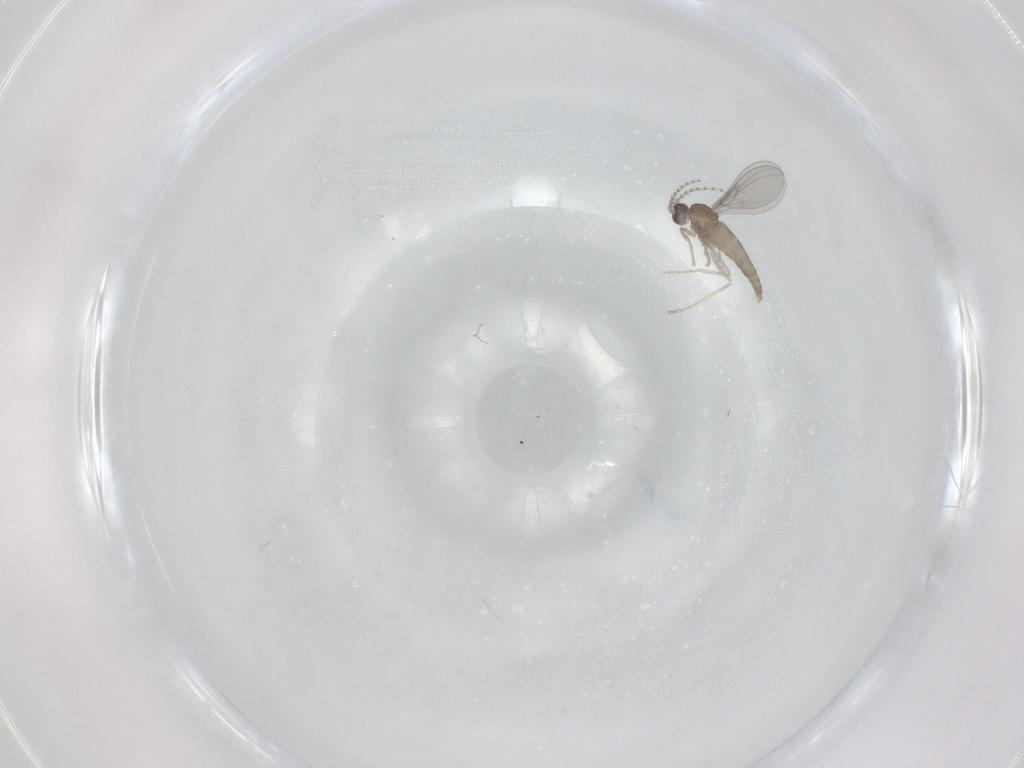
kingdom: Animalia
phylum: Arthropoda
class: Insecta
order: Diptera
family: Cecidomyiidae
